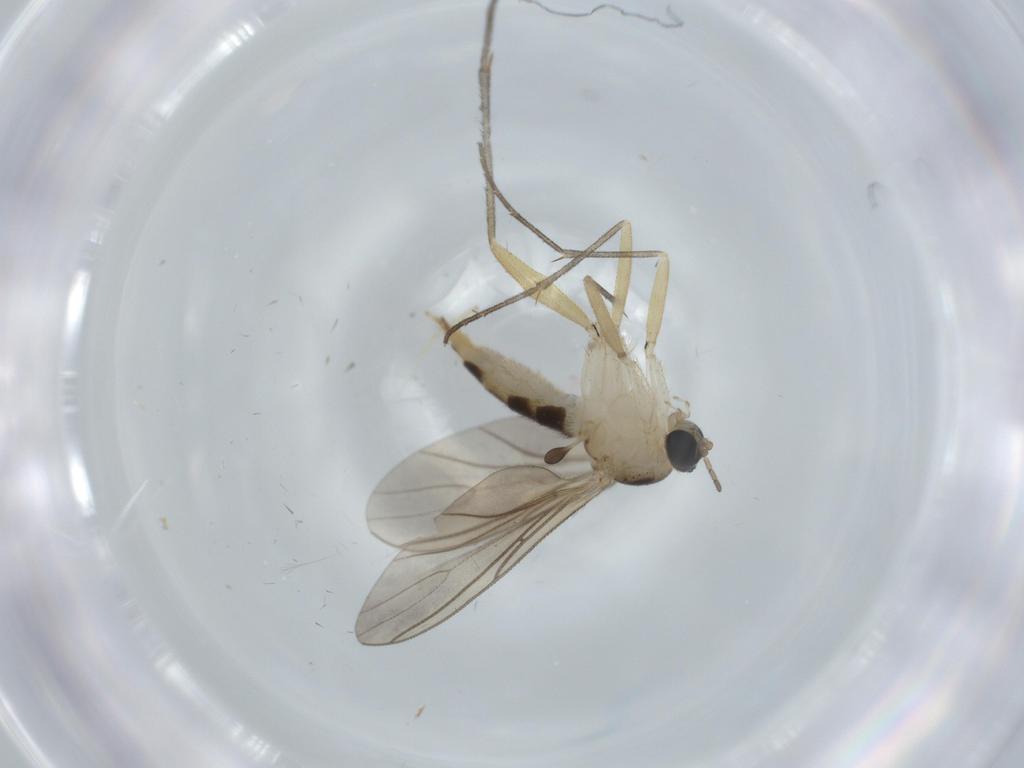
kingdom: Animalia
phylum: Arthropoda
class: Insecta
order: Diptera
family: Sciaridae
